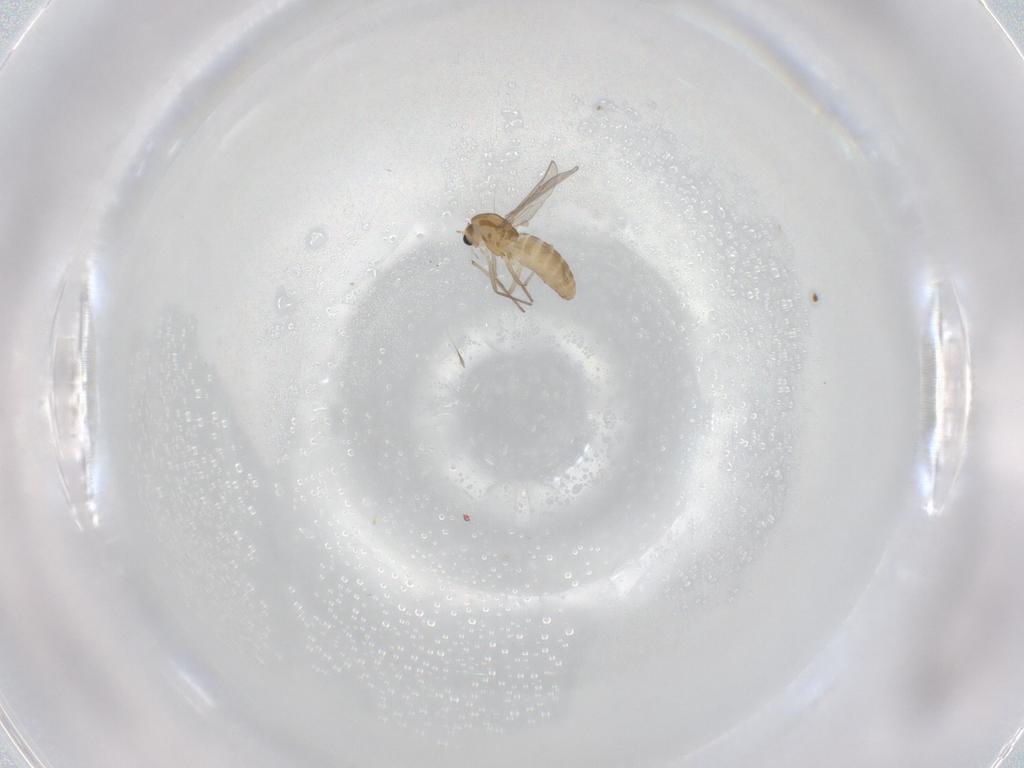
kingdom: Animalia
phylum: Arthropoda
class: Insecta
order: Diptera
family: Chironomidae
